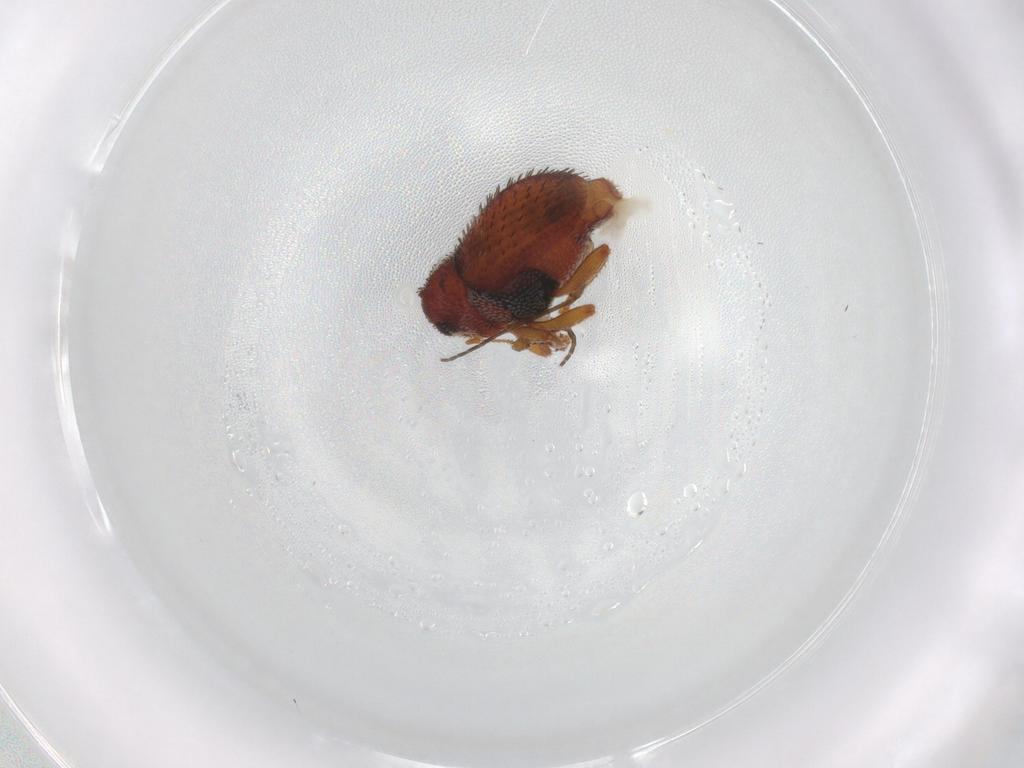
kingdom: Animalia
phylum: Arthropoda
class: Insecta
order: Coleoptera
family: Curculionidae
